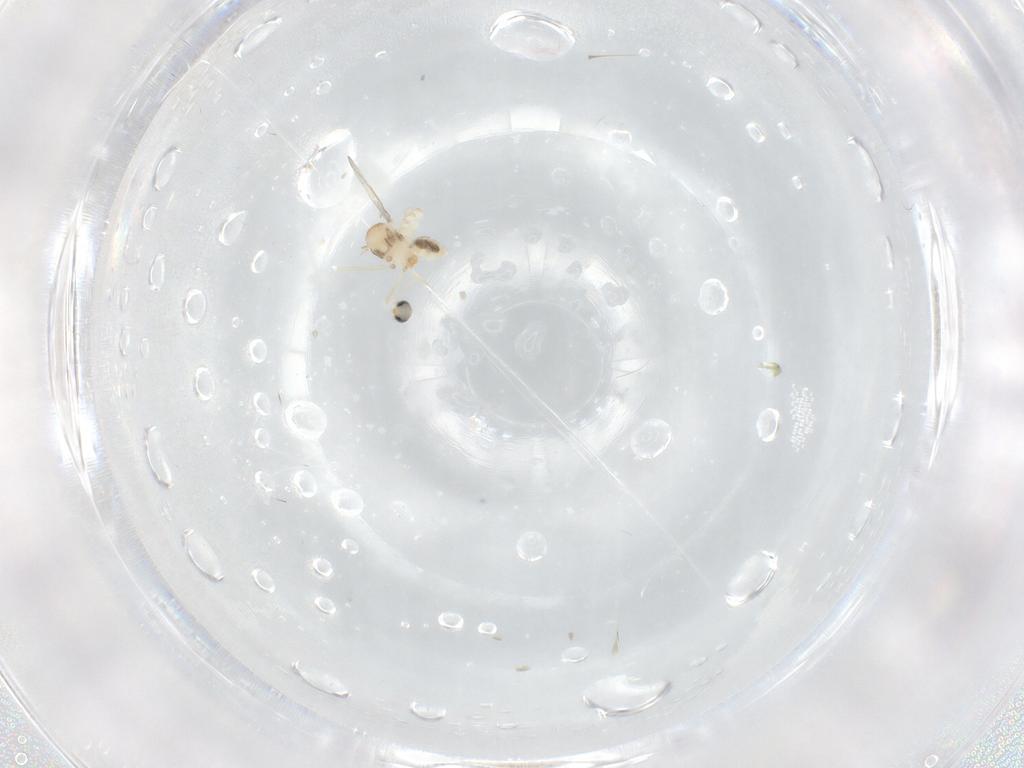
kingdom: Animalia
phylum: Arthropoda
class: Insecta
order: Diptera
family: Cecidomyiidae
